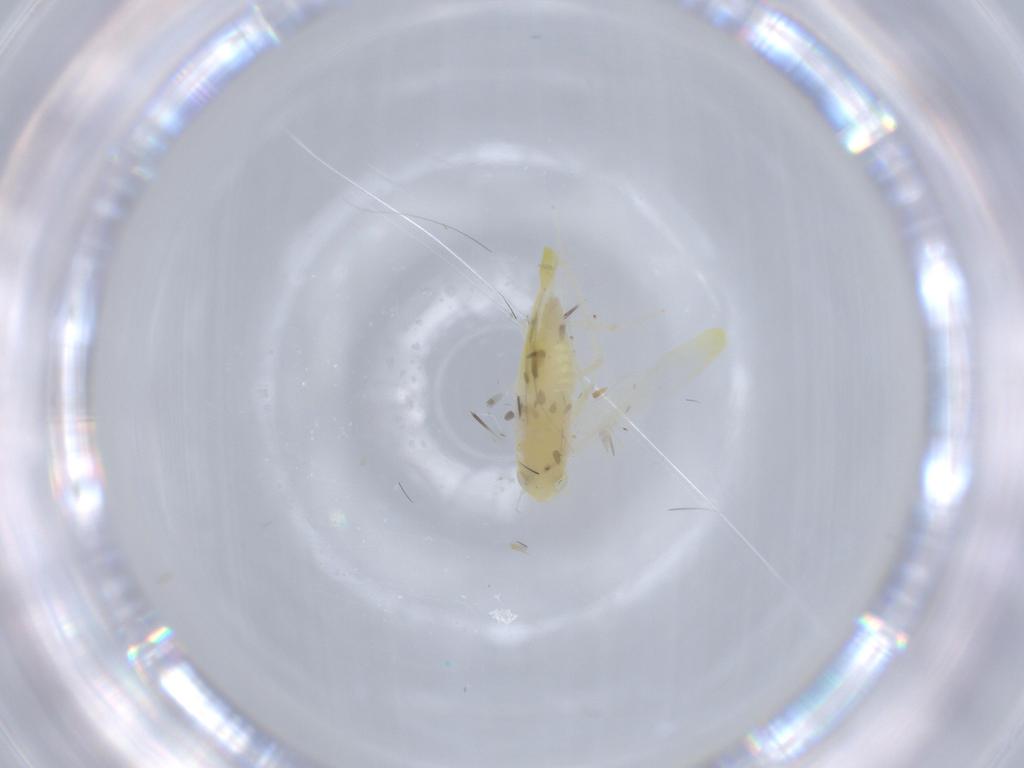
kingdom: Animalia
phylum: Arthropoda
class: Insecta
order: Hemiptera
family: Cicadellidae
